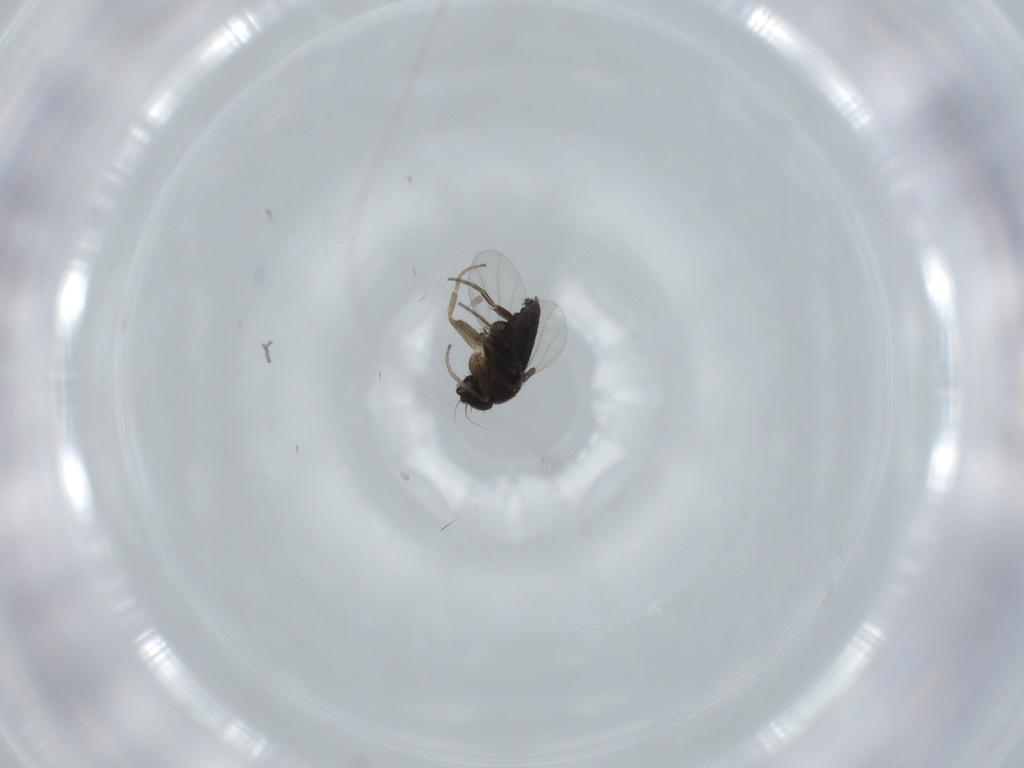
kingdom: Animalia
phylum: Arthropoda
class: Insecta
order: Diptera
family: Phoridae
